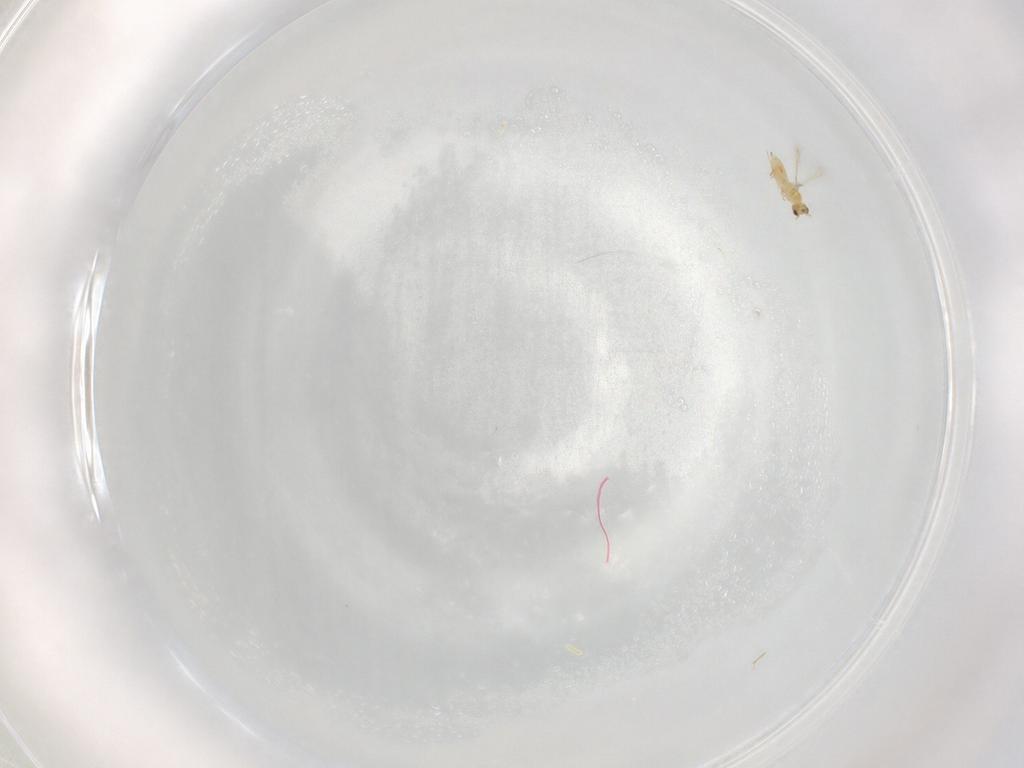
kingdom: Animalia
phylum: Arthropoda
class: Insecta
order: Hymenoptera
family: Mymaridae
